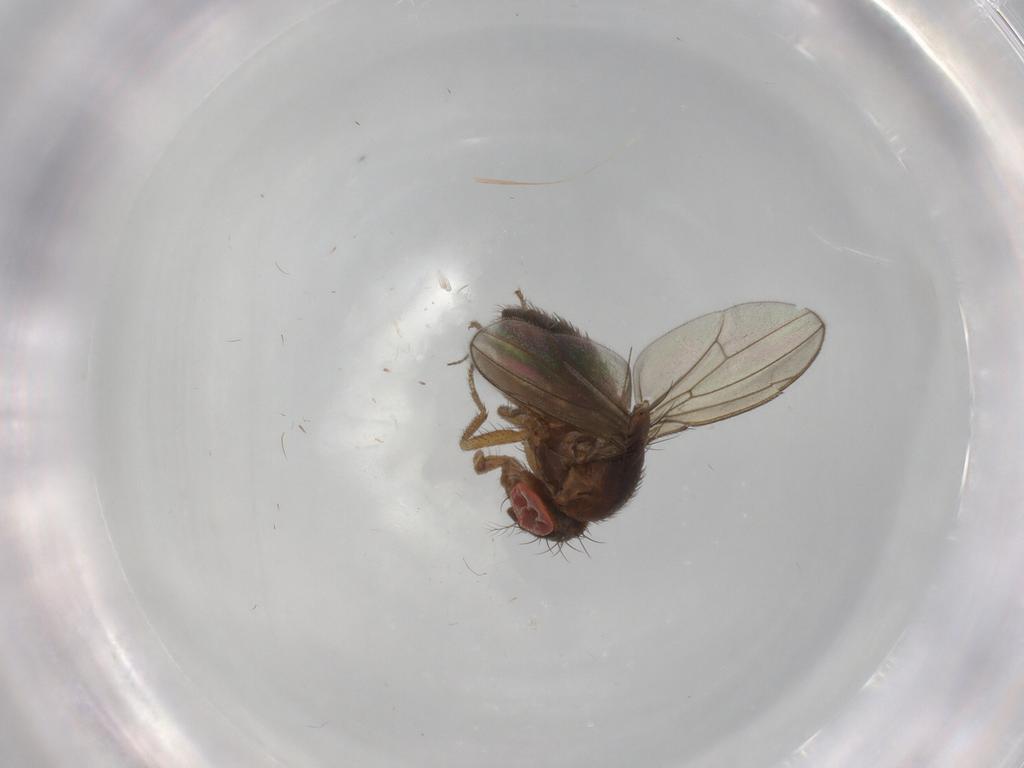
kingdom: Animalia
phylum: Arthropoda
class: Insecta
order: Diptera
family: Drosophilidae
